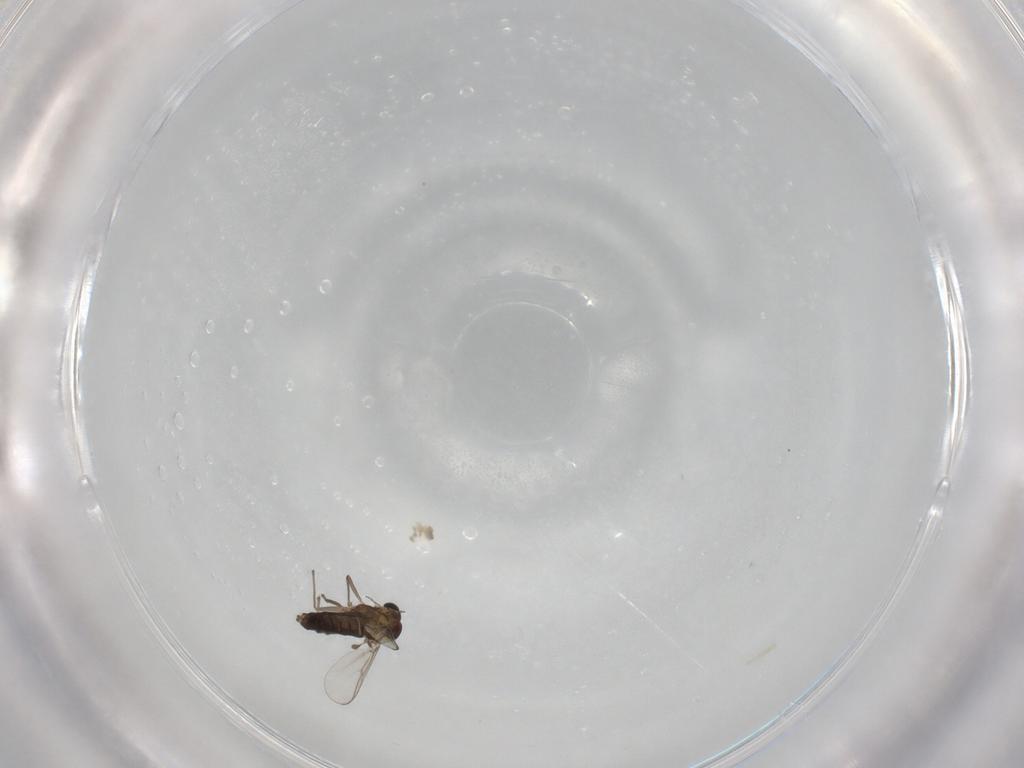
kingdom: Animalia
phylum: Arthropoda
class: Insecta
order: Diptera
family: Chironomidae
